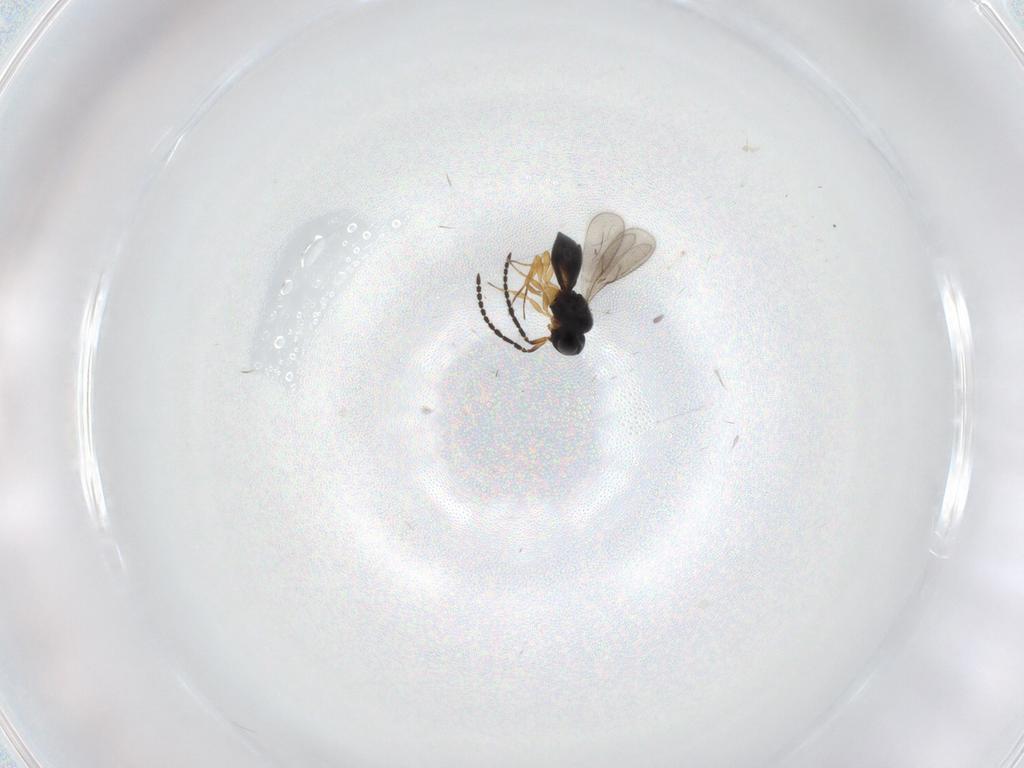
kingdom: Animalia
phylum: Arthropoda
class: Insecta
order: Hymenoptera
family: Scelionidae
